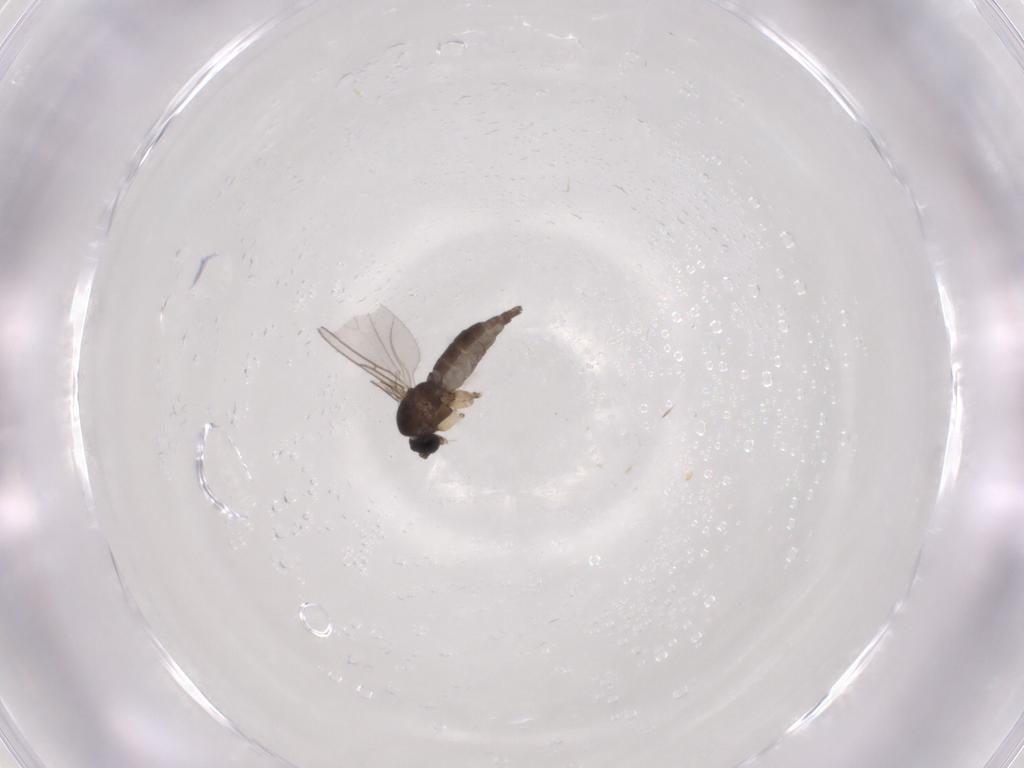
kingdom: Animalia
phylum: Arthropoda
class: Insecta
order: Diptera
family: Sciaridae
